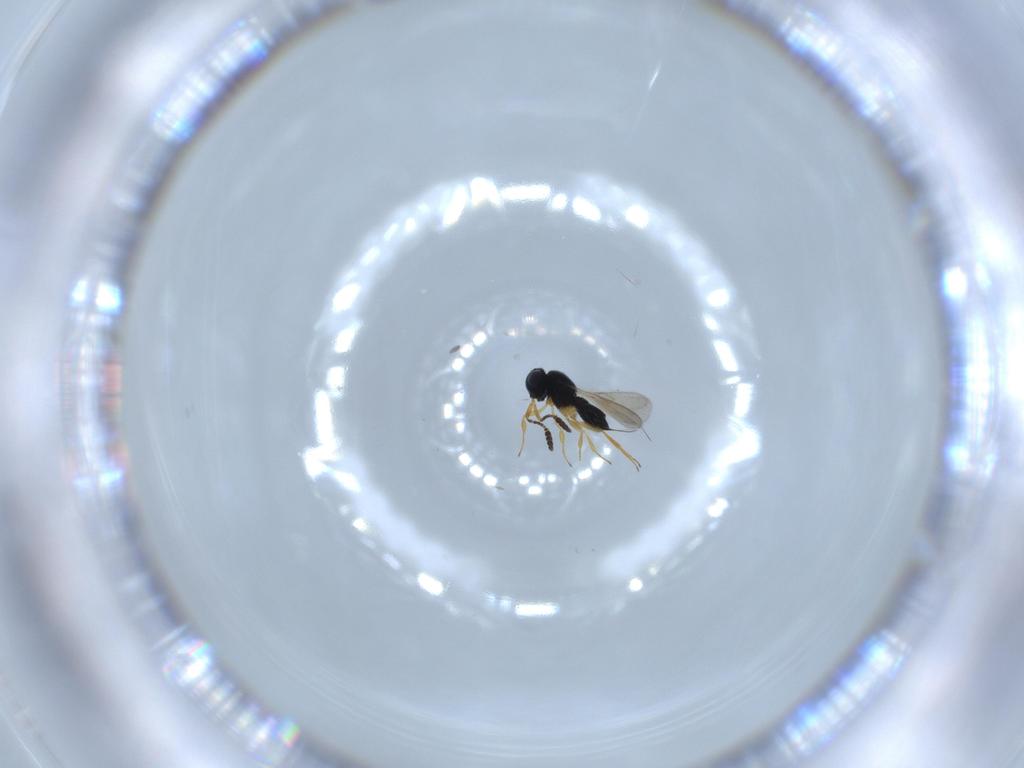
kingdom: Animalia
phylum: Arthropoda
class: Insecta
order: Hymenoptera
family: Scelionidae
